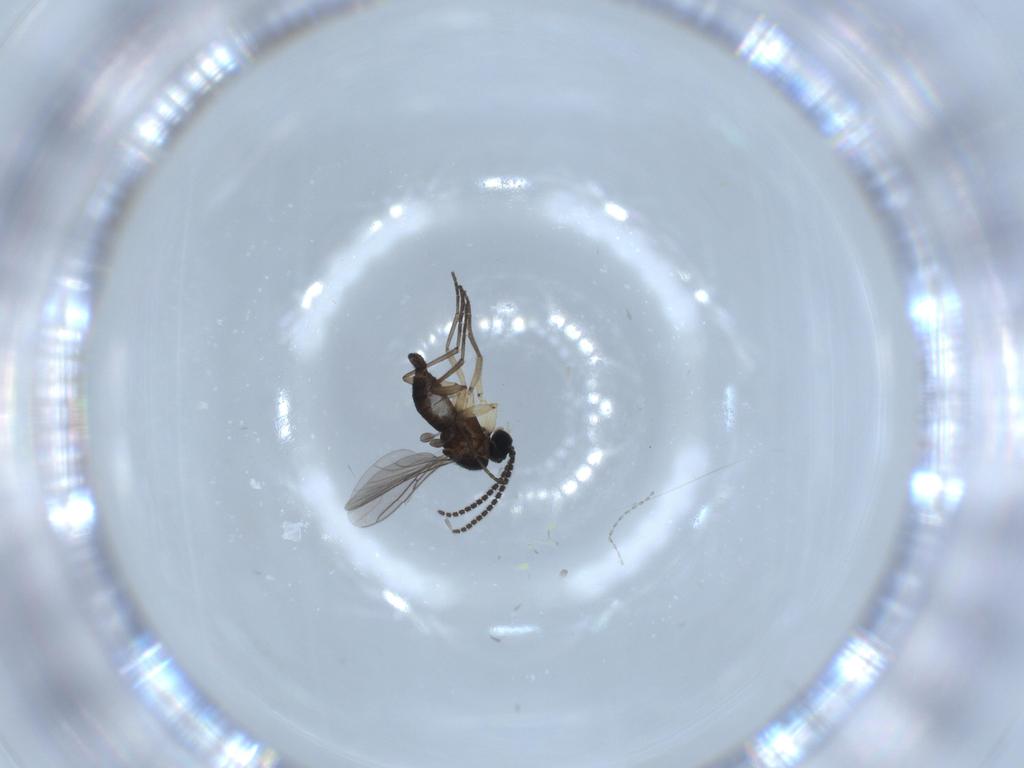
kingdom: Animalia
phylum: Arthropoda
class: Insecta
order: Diptera
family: Sciaridae
